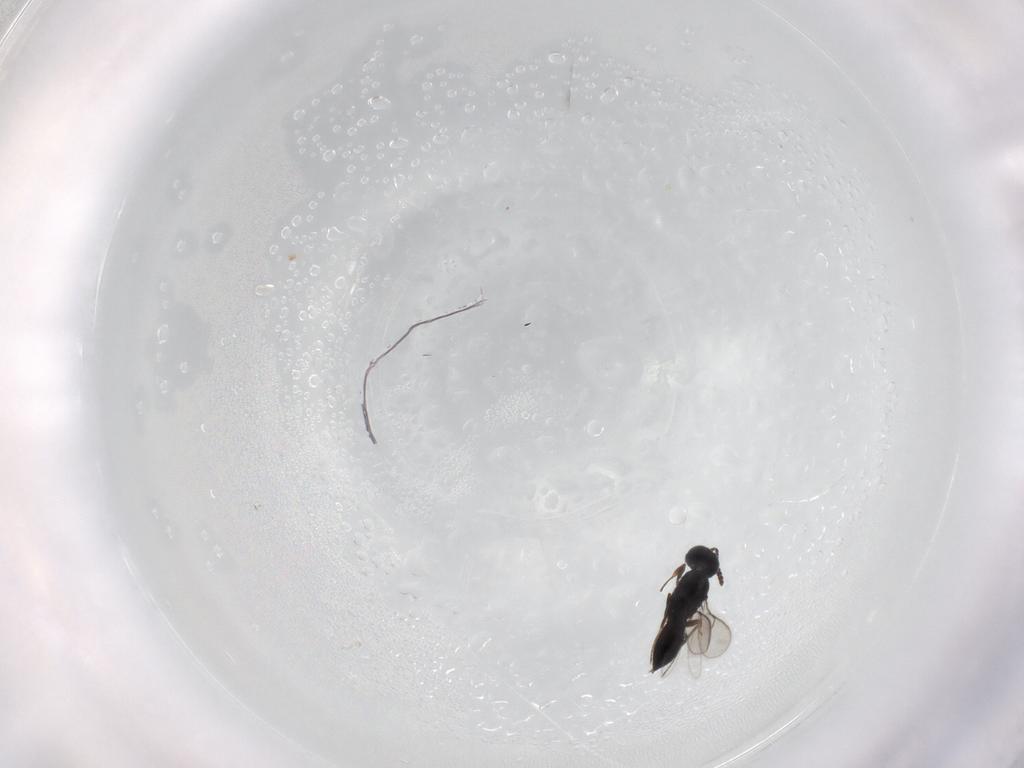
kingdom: Animalia
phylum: Arthropoda
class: Insecta
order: Hymenoptera
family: Scelionidae
